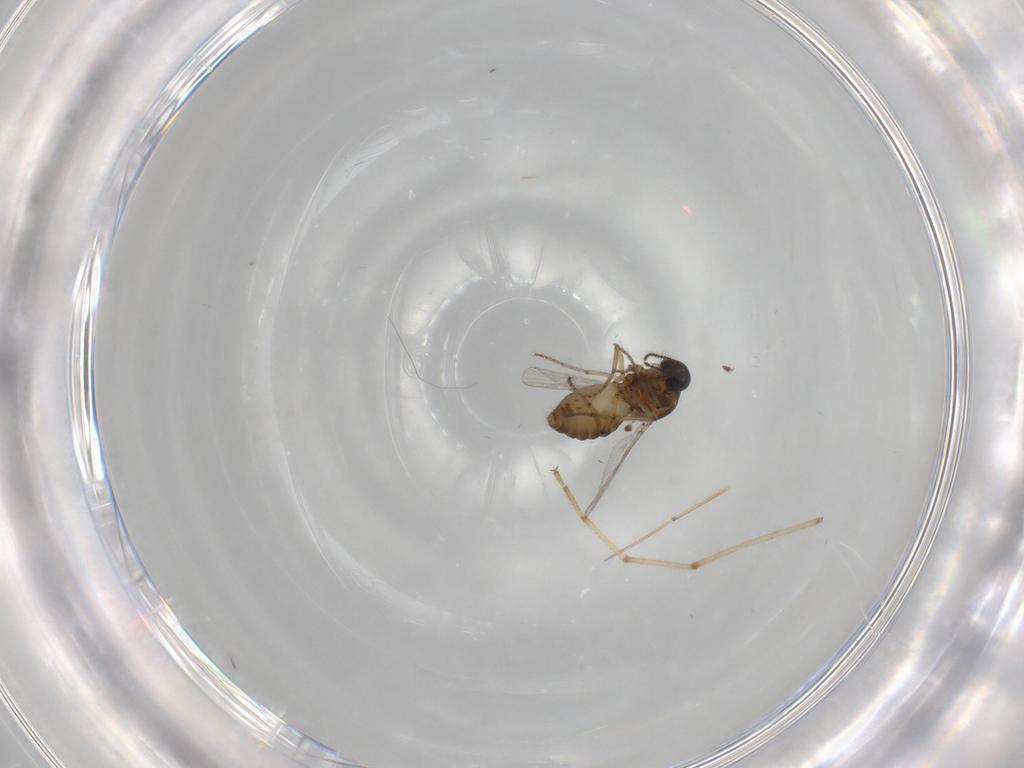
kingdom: Animalia
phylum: Arthropoda
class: Insecta
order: Diptera
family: Ceratopogonidae
